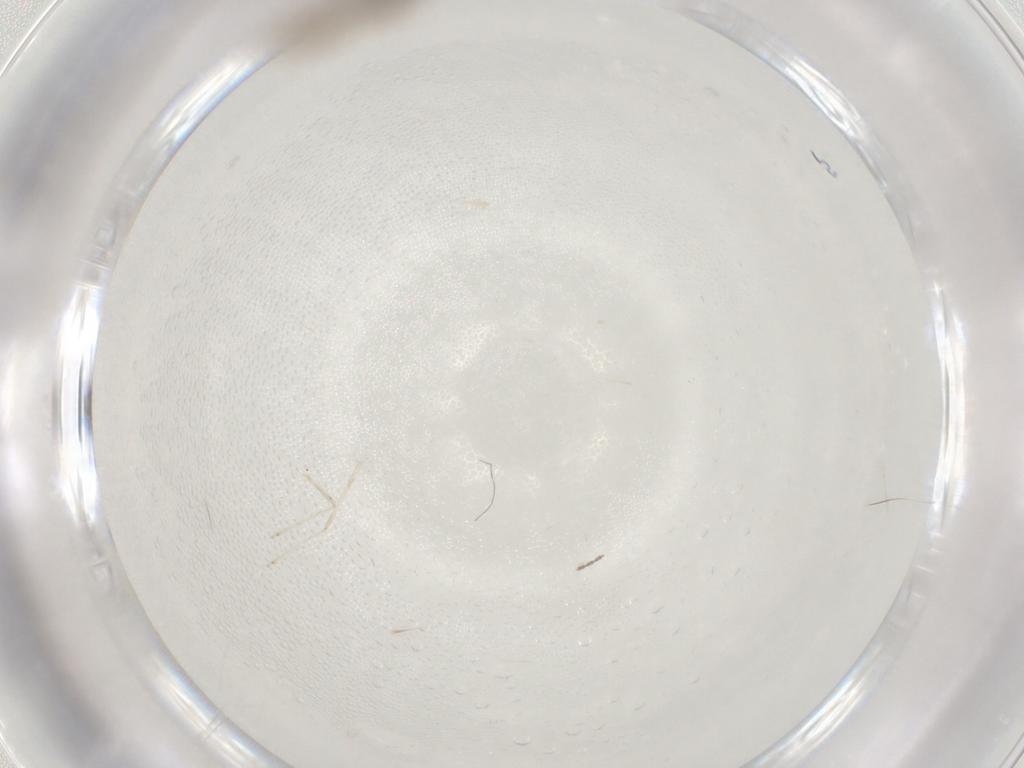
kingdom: Animalia
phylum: Arthropoda
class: Insecta
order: Diptera
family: Cecidomyiidae
